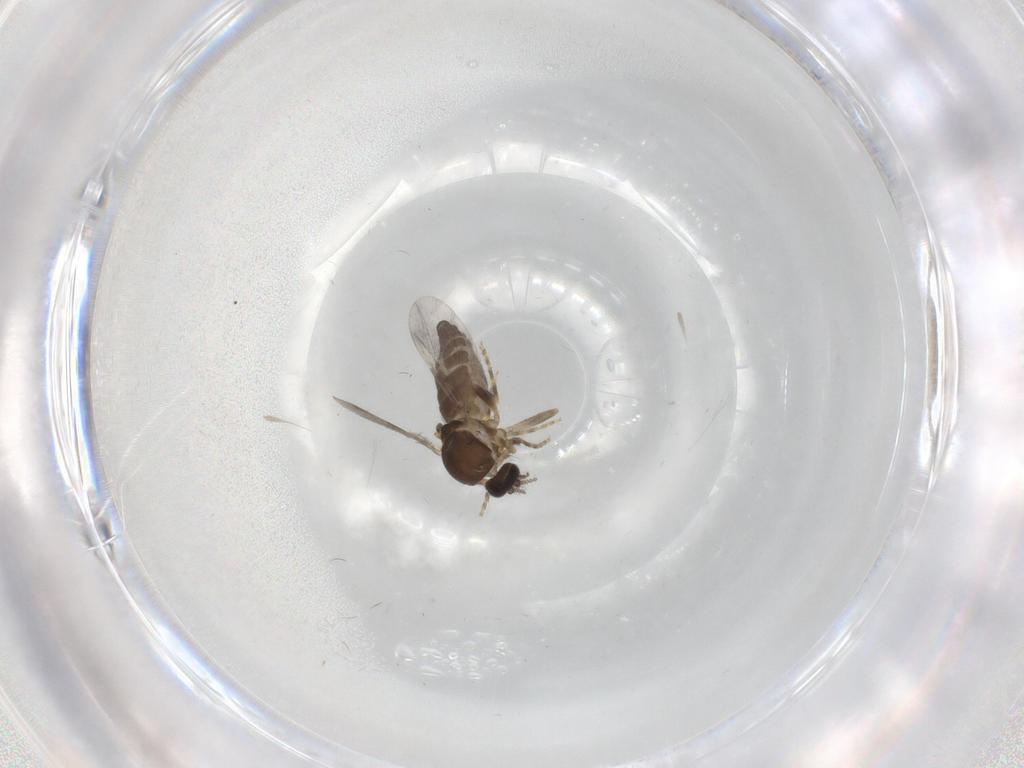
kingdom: Animalia
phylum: Arthropoda
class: Insecta
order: Diptera
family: Ceratopogonidae
